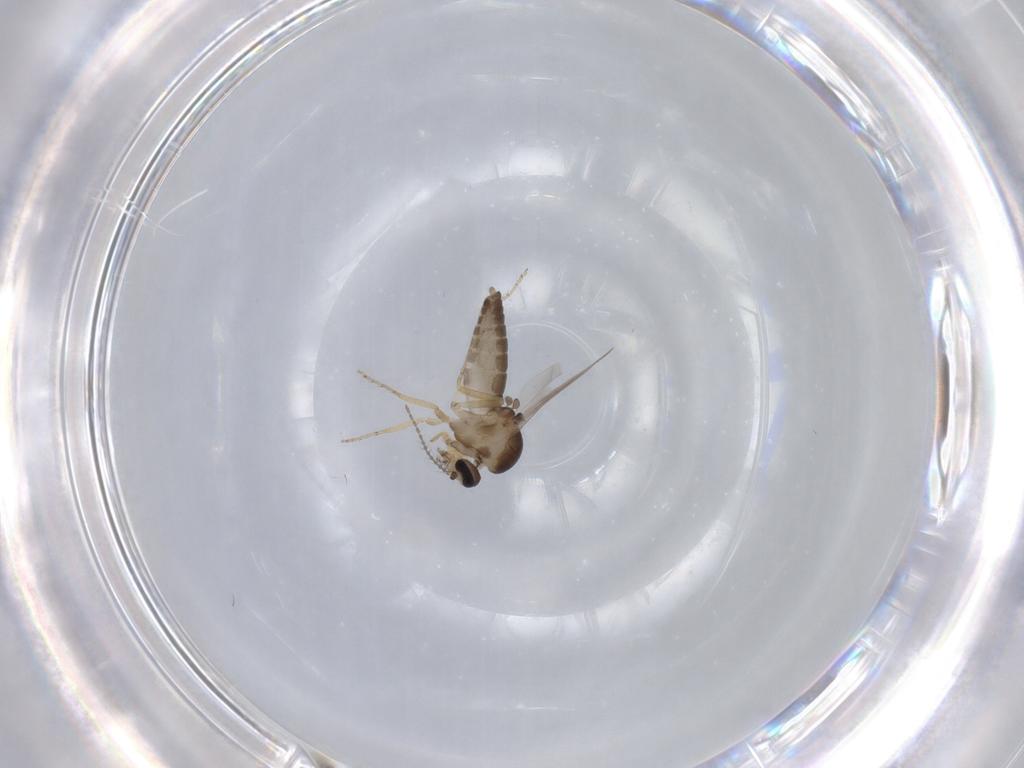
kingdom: Animalia
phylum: Arthropoda
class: Insecta
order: Diptera
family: Ceratopogonidae
